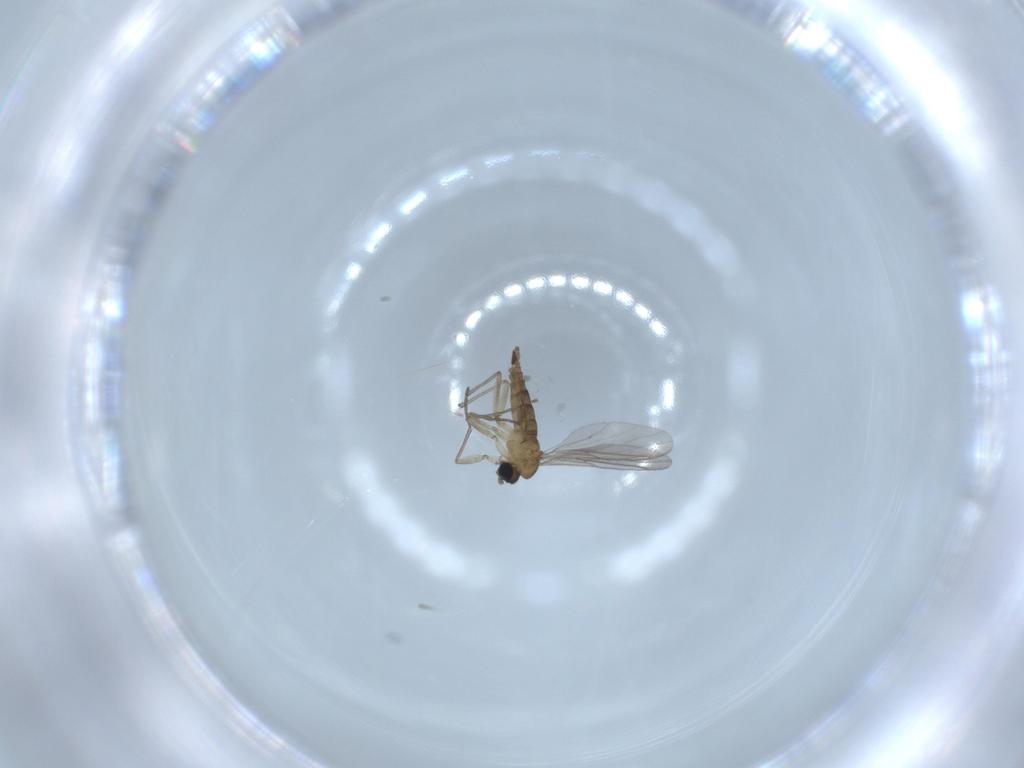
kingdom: Animalia
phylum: Arthropoda
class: Insecta
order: Diptera
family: Sciaridae
